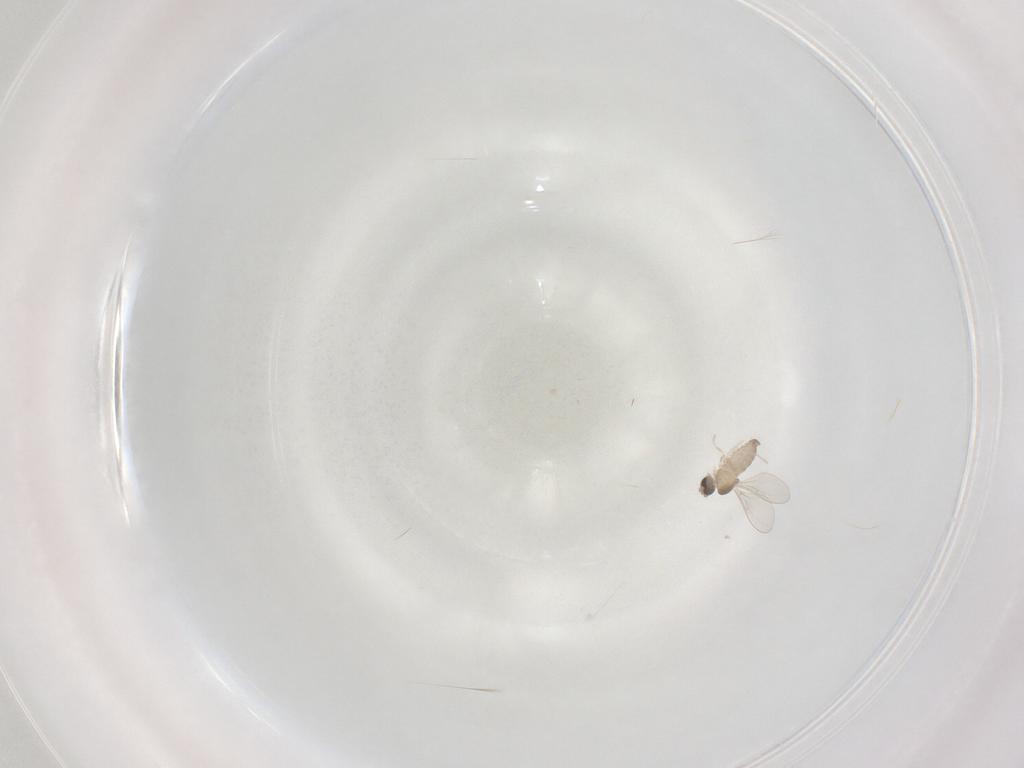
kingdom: Animalia
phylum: Arthropoda
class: Insecta
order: Diptera
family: Cecidomyiidae
